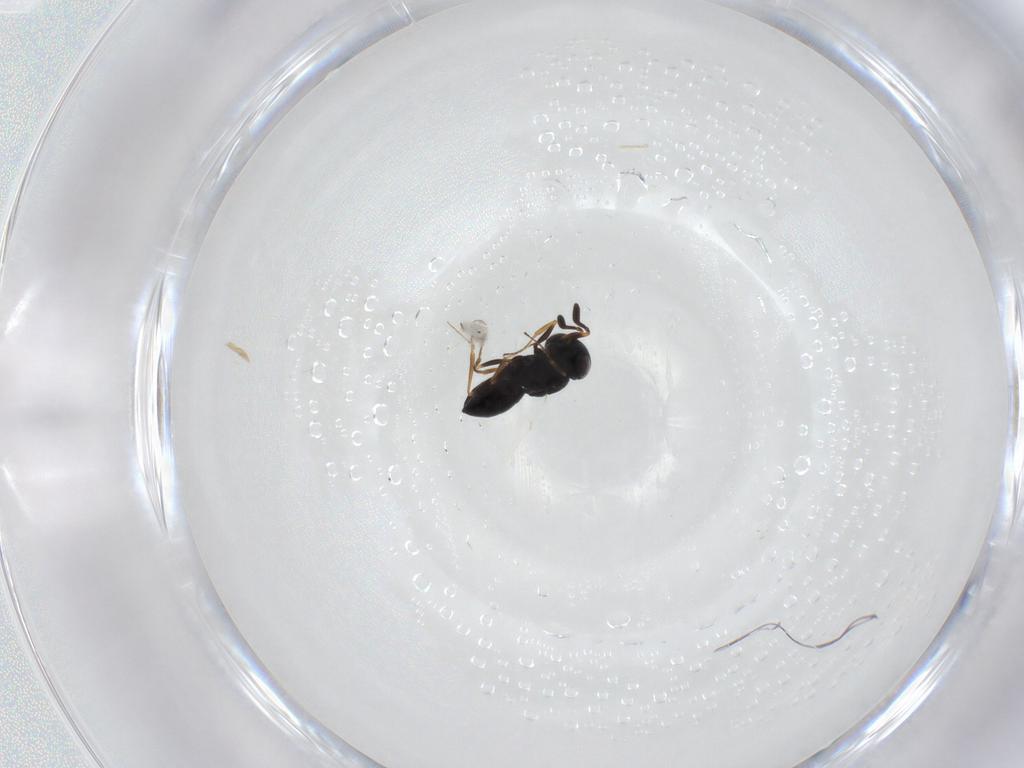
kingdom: Animalia
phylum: Arthropoda
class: Insecta
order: Hymenoptera
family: Scelionidae
